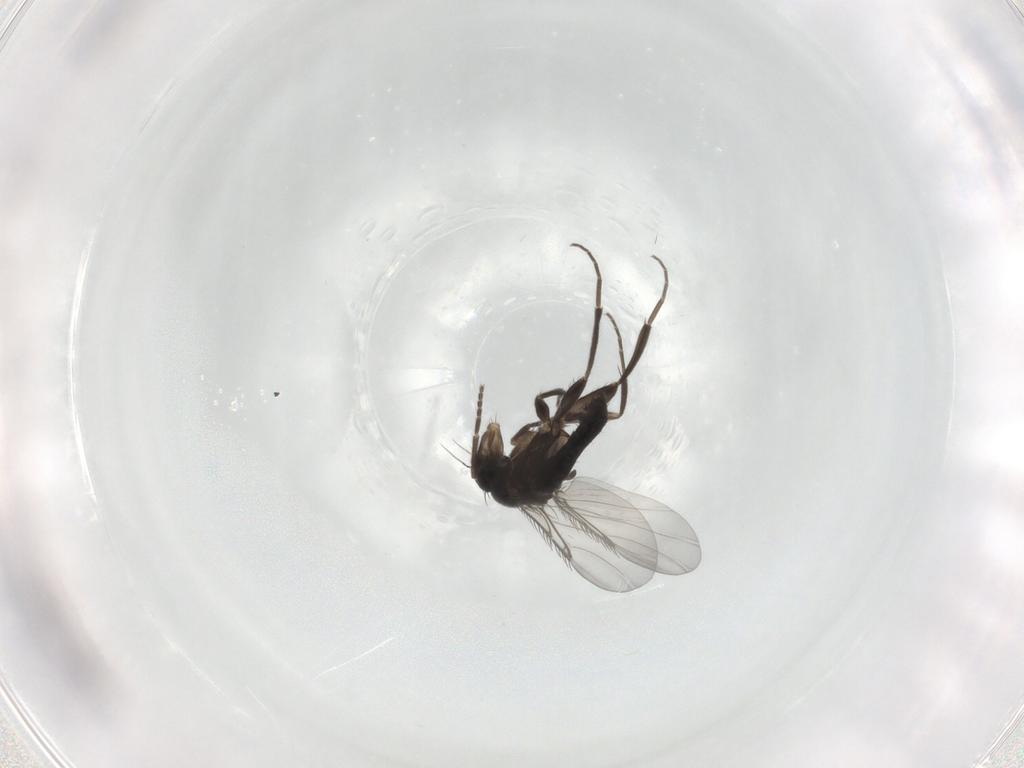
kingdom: Animalia
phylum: Arthropoda
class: Insecta
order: Diptera
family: Phoridae
